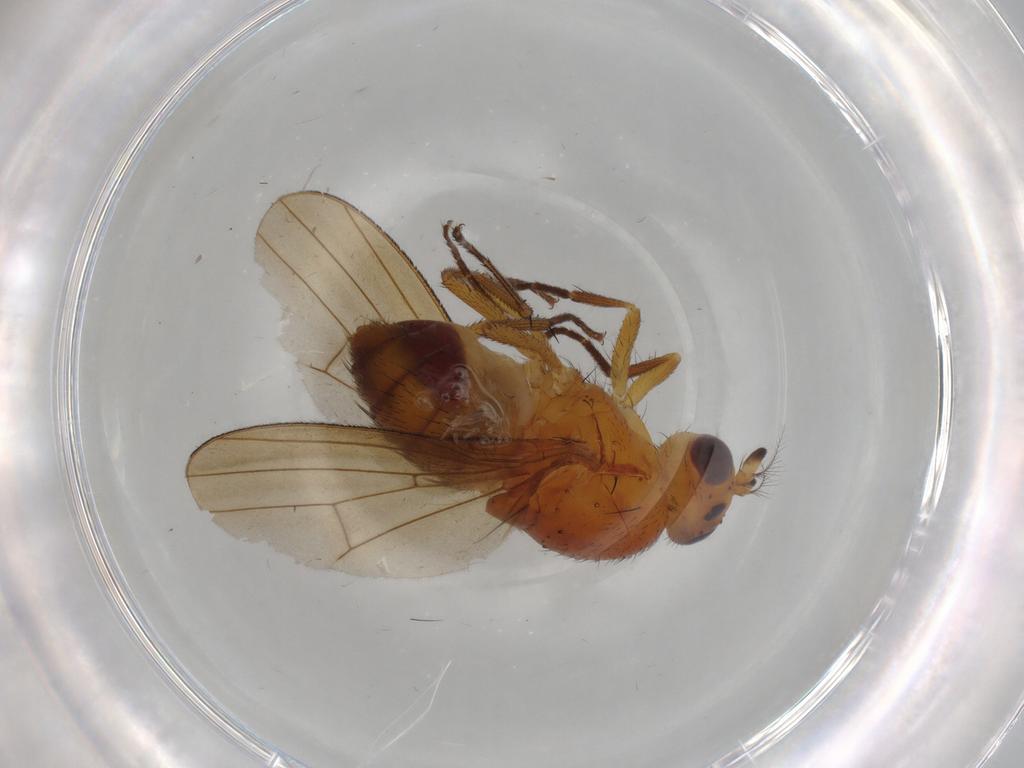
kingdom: Animalia
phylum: Arthropoda
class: Insecta
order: Diptera
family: Lauxaniidae
